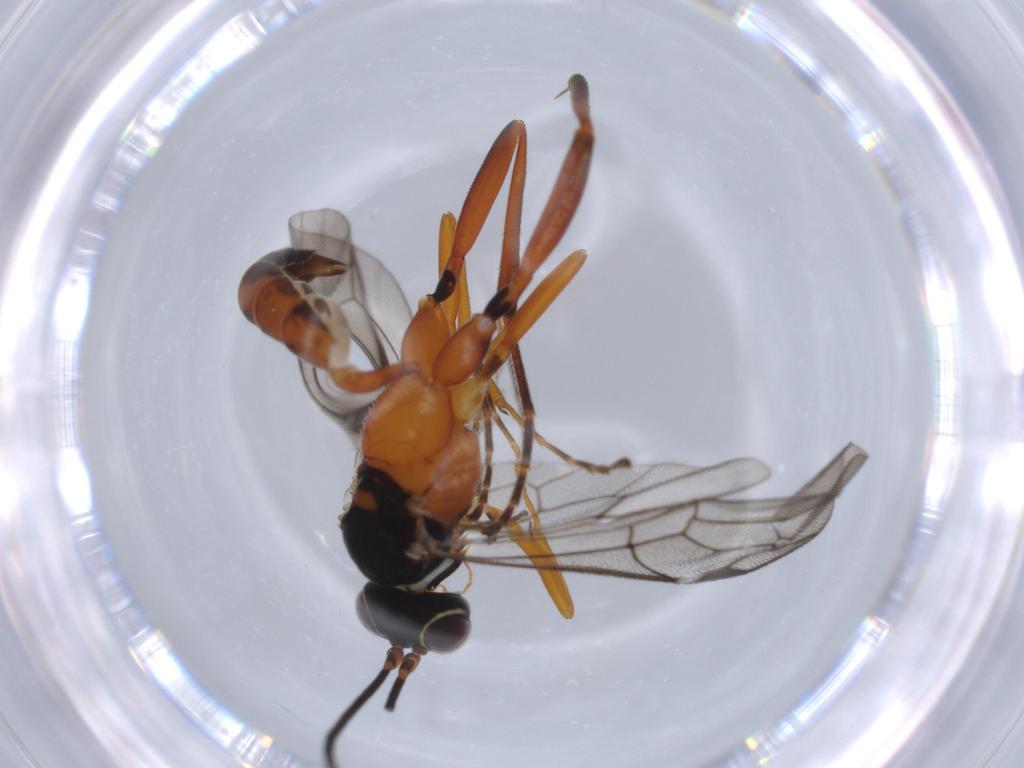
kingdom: Animalia
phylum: Arthropoda
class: Insecta
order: Hymenoptera
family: Ichneumonidae
